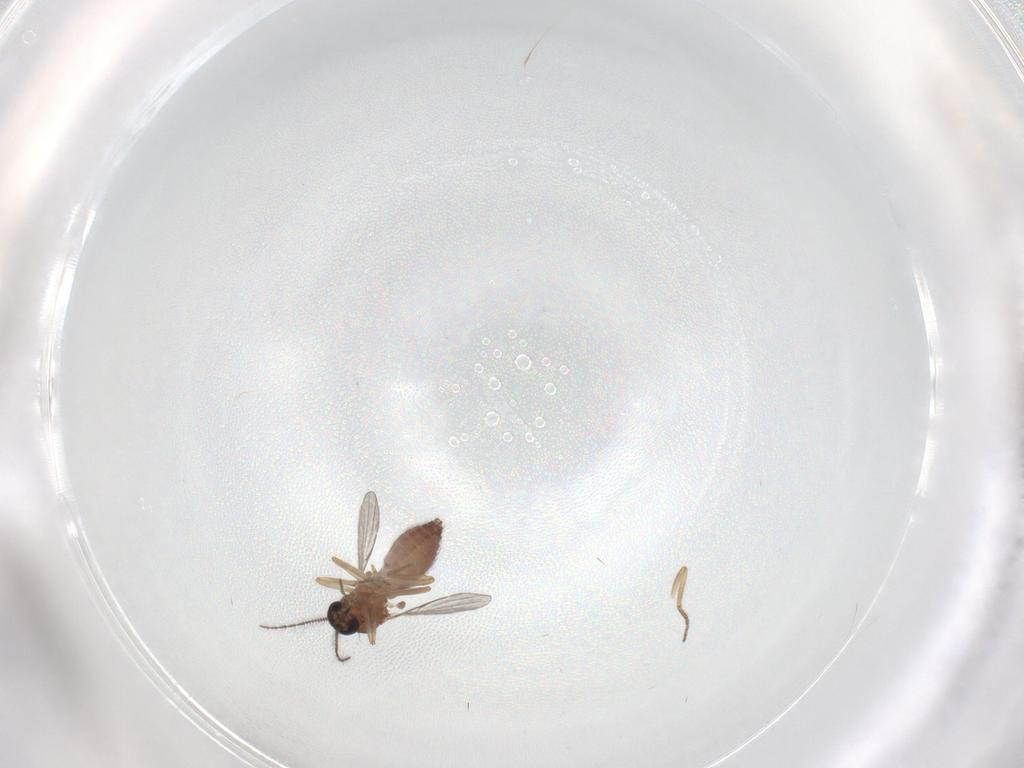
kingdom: Animalia
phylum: Arthropoda
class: Insecta
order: Diptera
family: Ceratopogonidae
